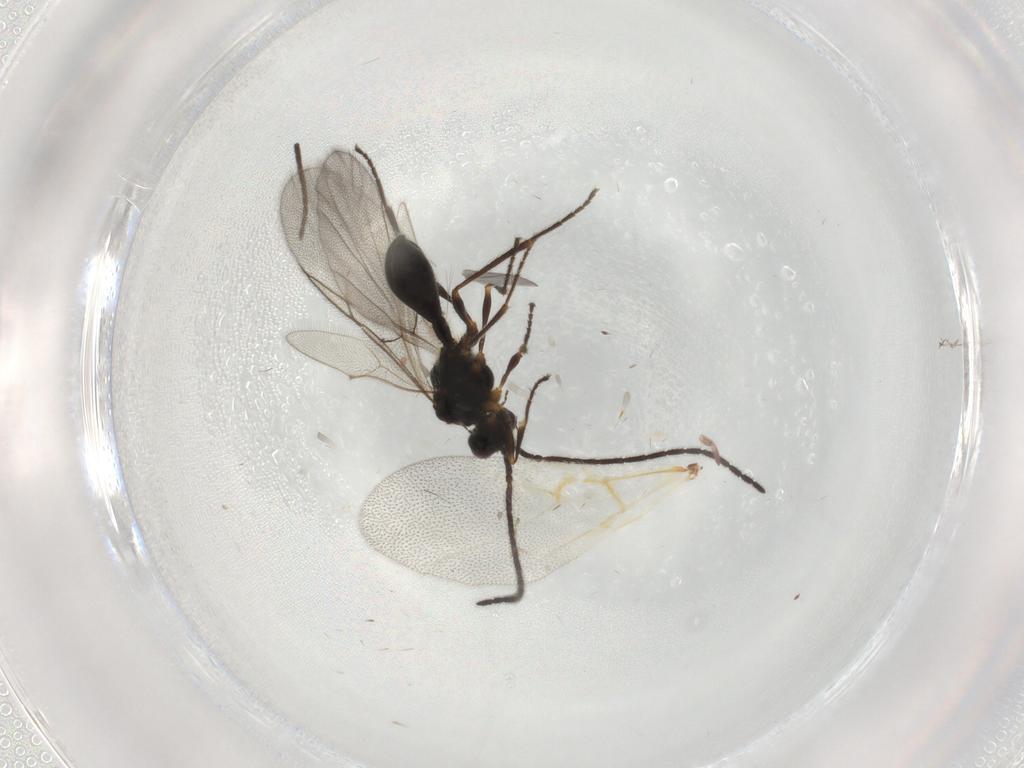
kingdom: Animalia
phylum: Arthropoda
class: Insecta
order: Hymenoptera
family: Diapriidae
